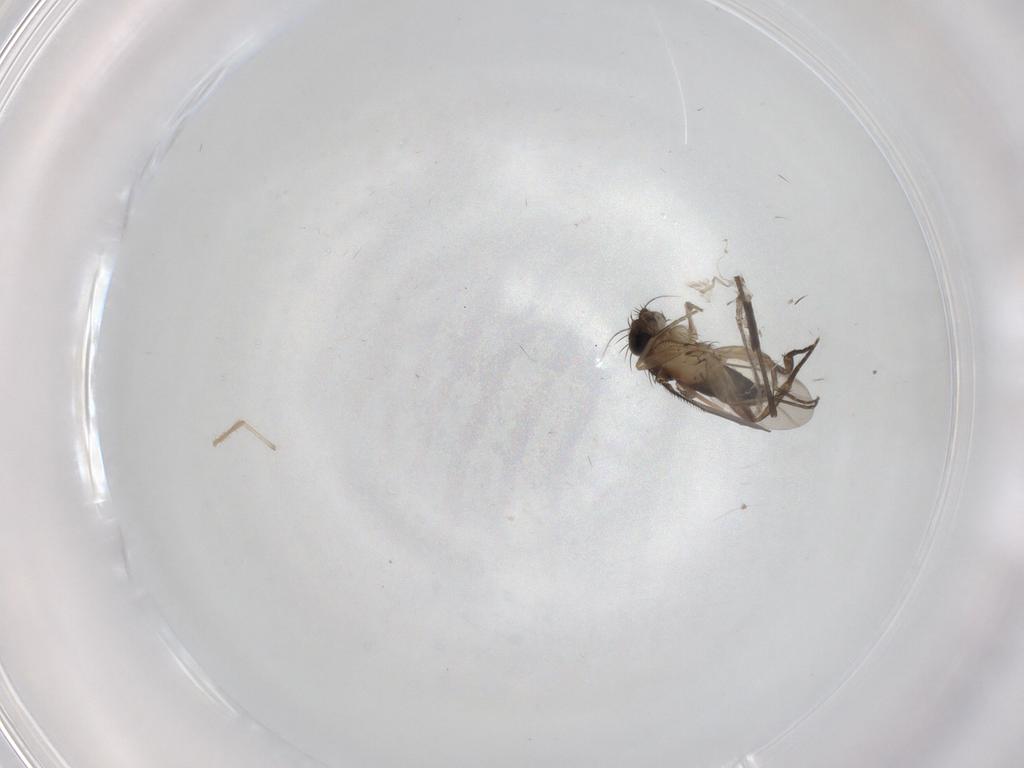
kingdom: Animalia
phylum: Arthropoda
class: Insecta
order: Diptera
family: Phoridae
